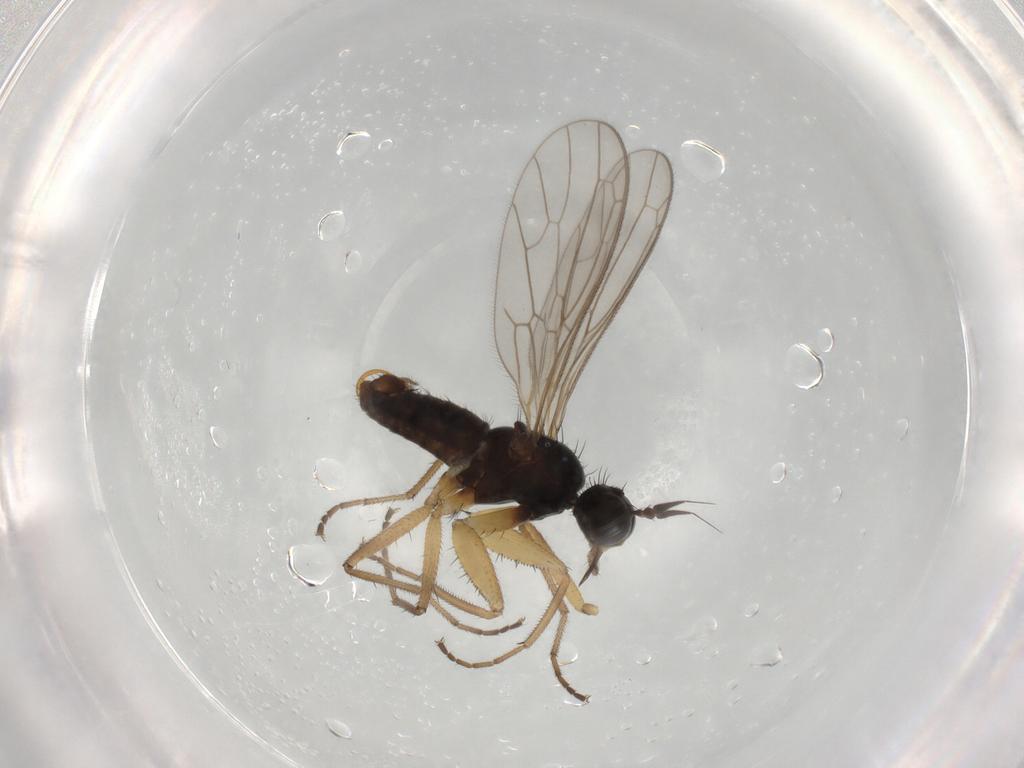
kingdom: Animalia
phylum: Arthropoda
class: Insecta
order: Diptera
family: Empididae
